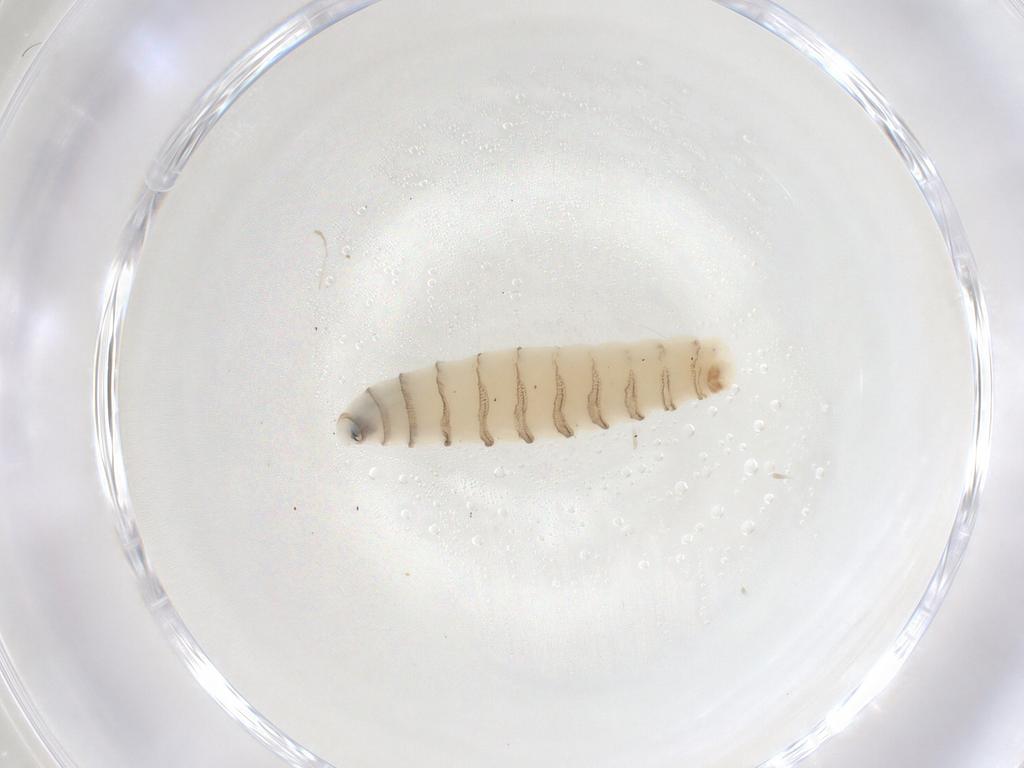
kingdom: Animalia
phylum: Arthropoda
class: Insecta
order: Diptera
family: Sarcophagidae
